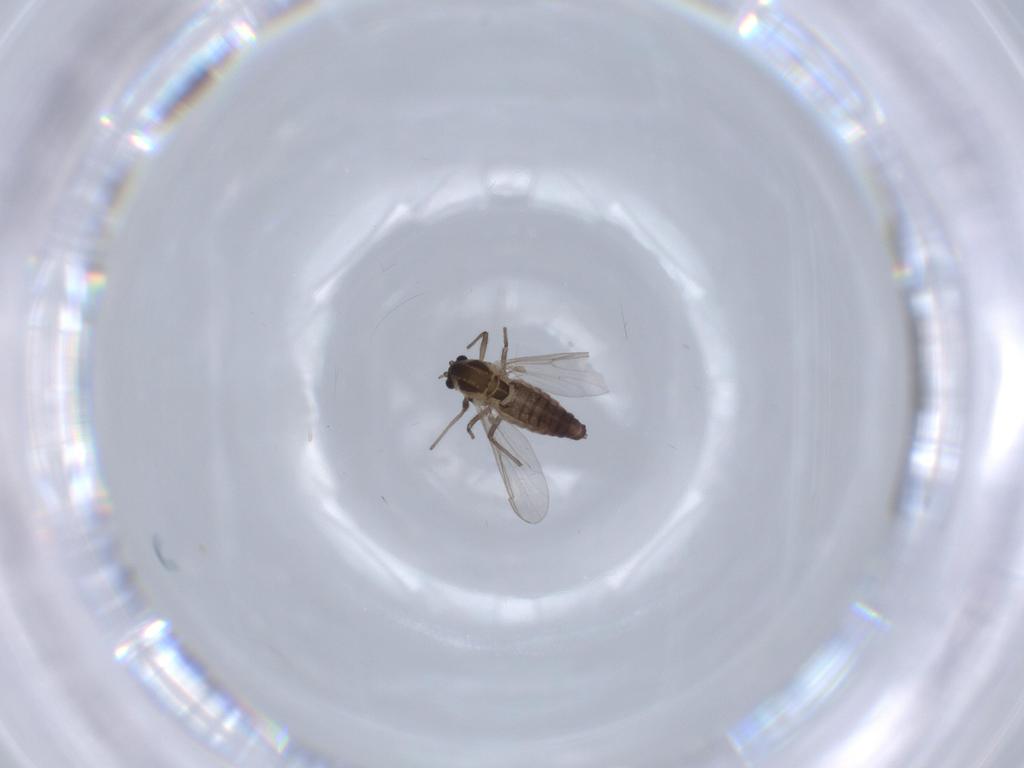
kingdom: Animalia
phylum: Arthropoda
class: Insecta
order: Diptera
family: Chironomidae
